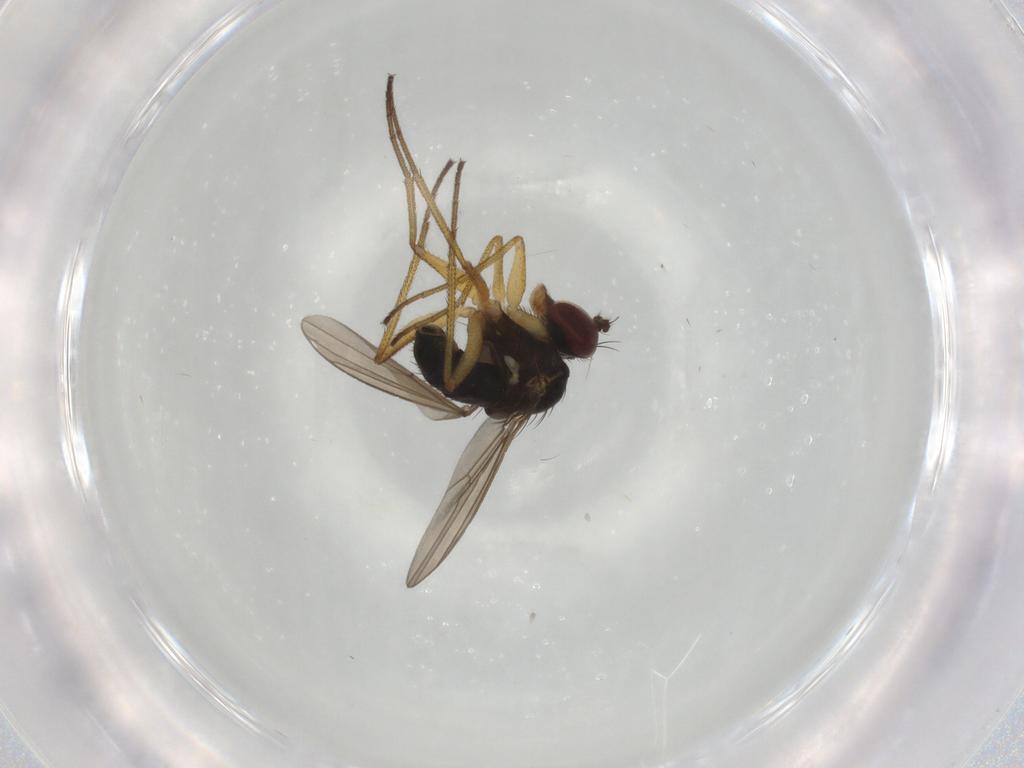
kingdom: Animalia
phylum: Arthropoda
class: Insecta
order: Diptera
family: Dolichopodidae
